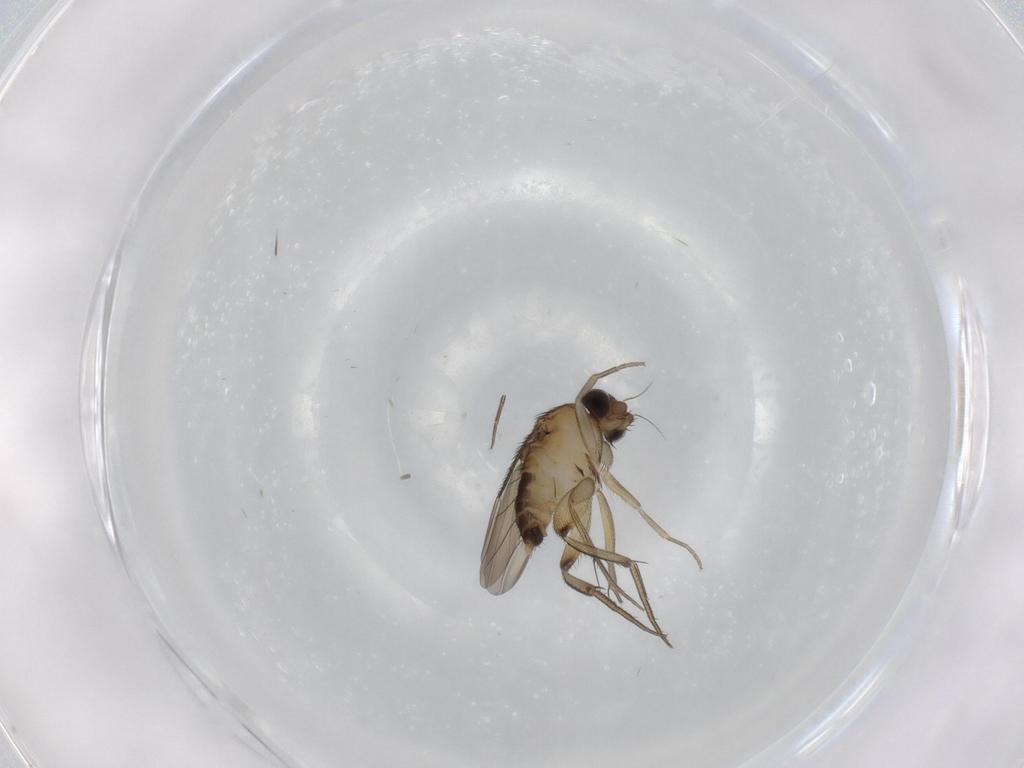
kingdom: Animalia
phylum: Arthropoda
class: Insecta
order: Diptera
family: Phoridae
